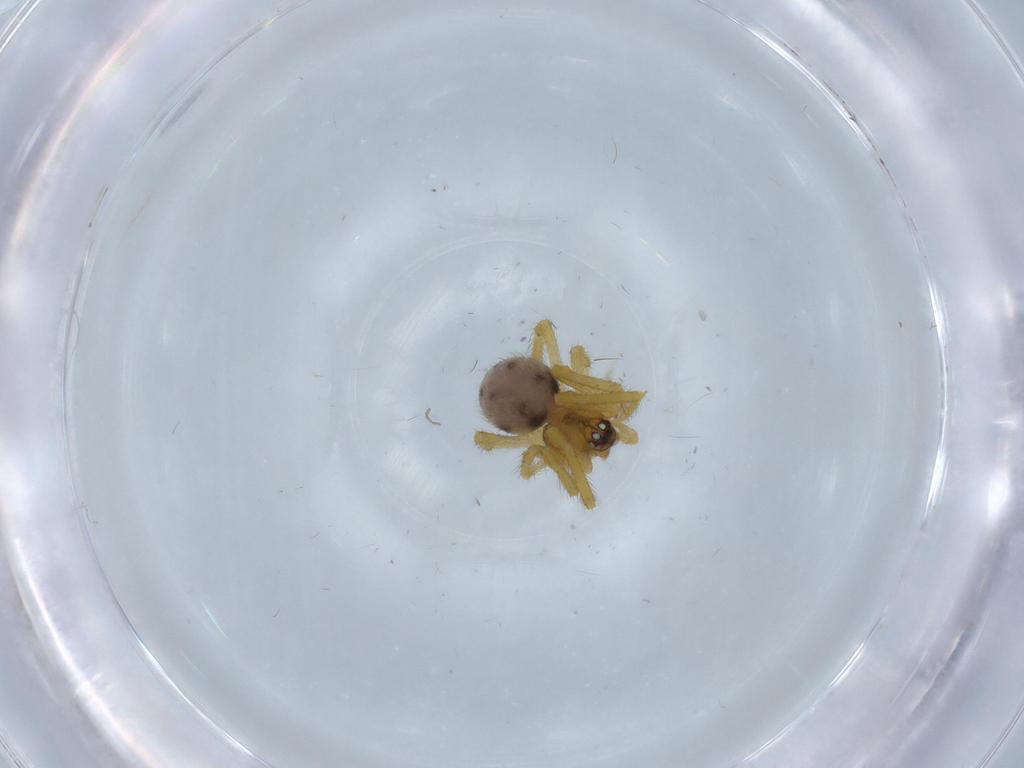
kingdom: Animalia
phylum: Arthropoda
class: Arachnida
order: Araneae
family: Theridiidae
